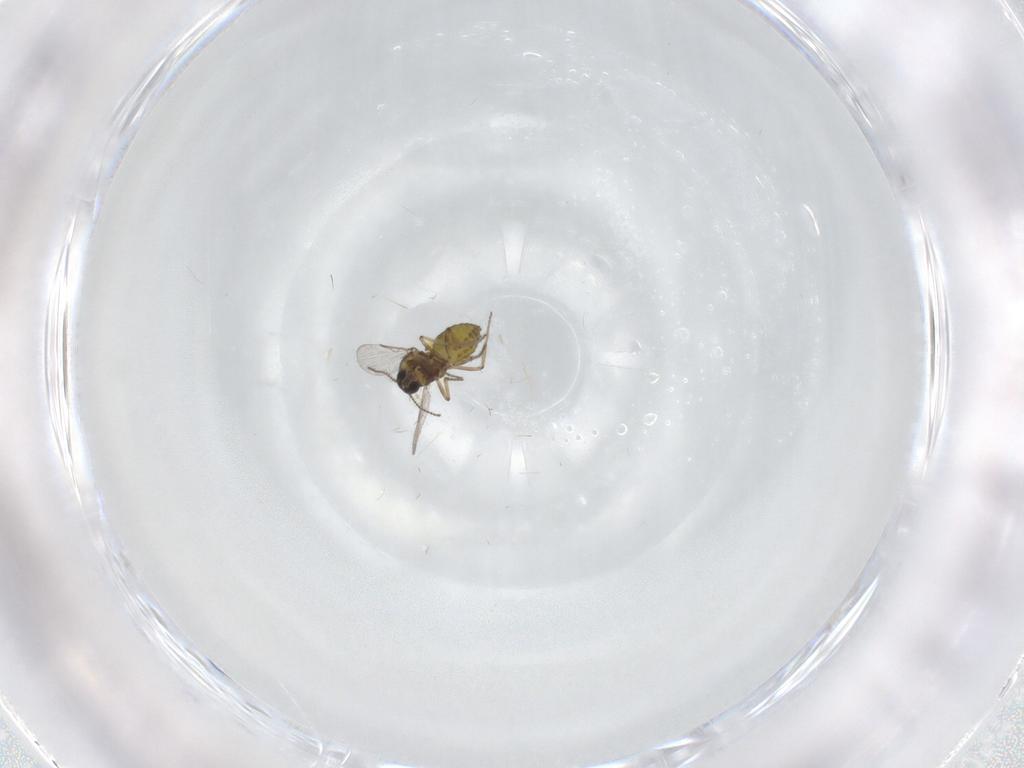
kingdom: Animalia
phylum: Arthropoda
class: Insecta
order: Diptera
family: Ceratopogonidae
